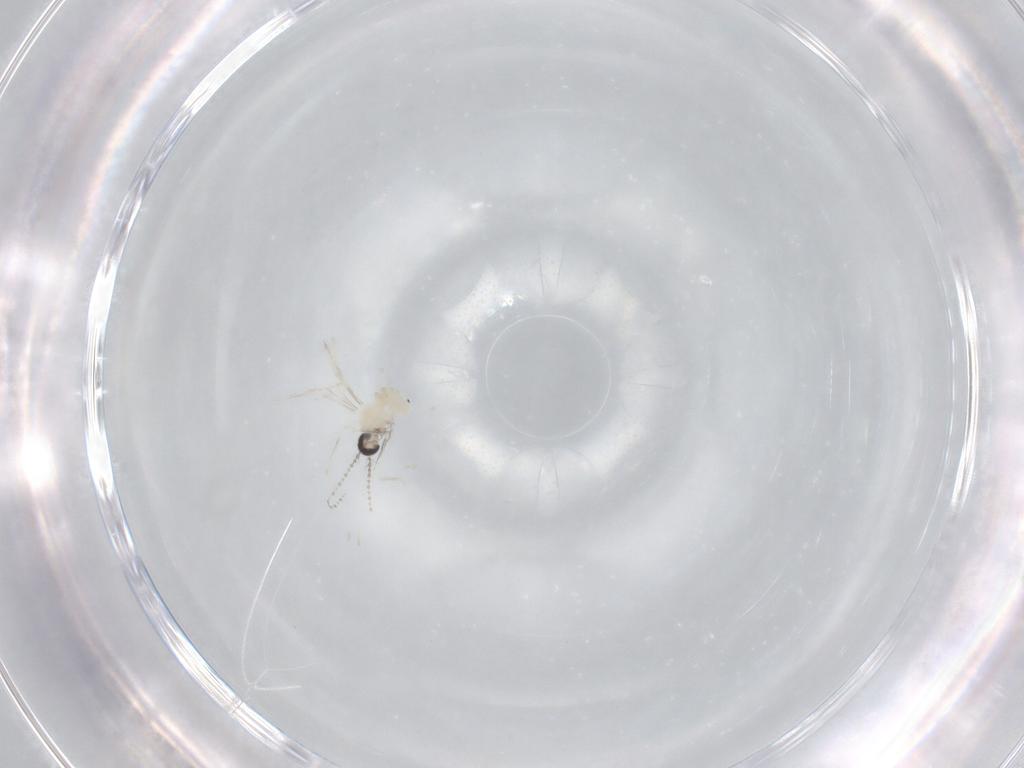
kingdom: Animalia
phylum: Arthropoda
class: Insecta
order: Diptera
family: Cecidomyiidae
